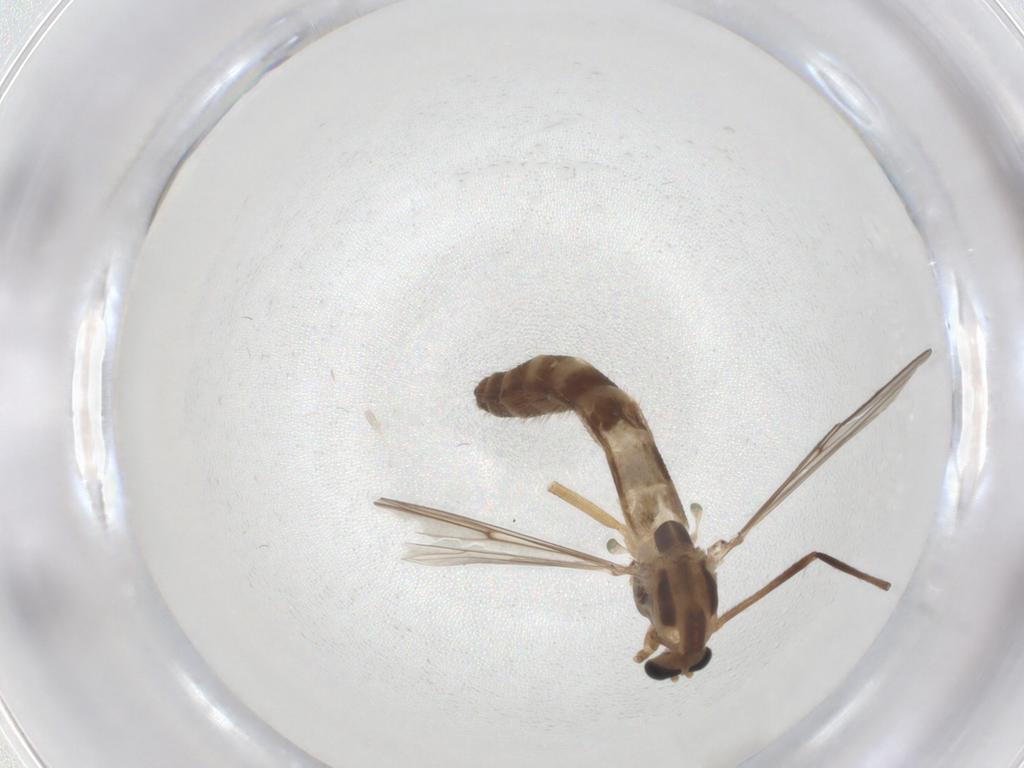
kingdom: Animalia
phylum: Arthropoda
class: Insecta
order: Diptera
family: Chironomidae
